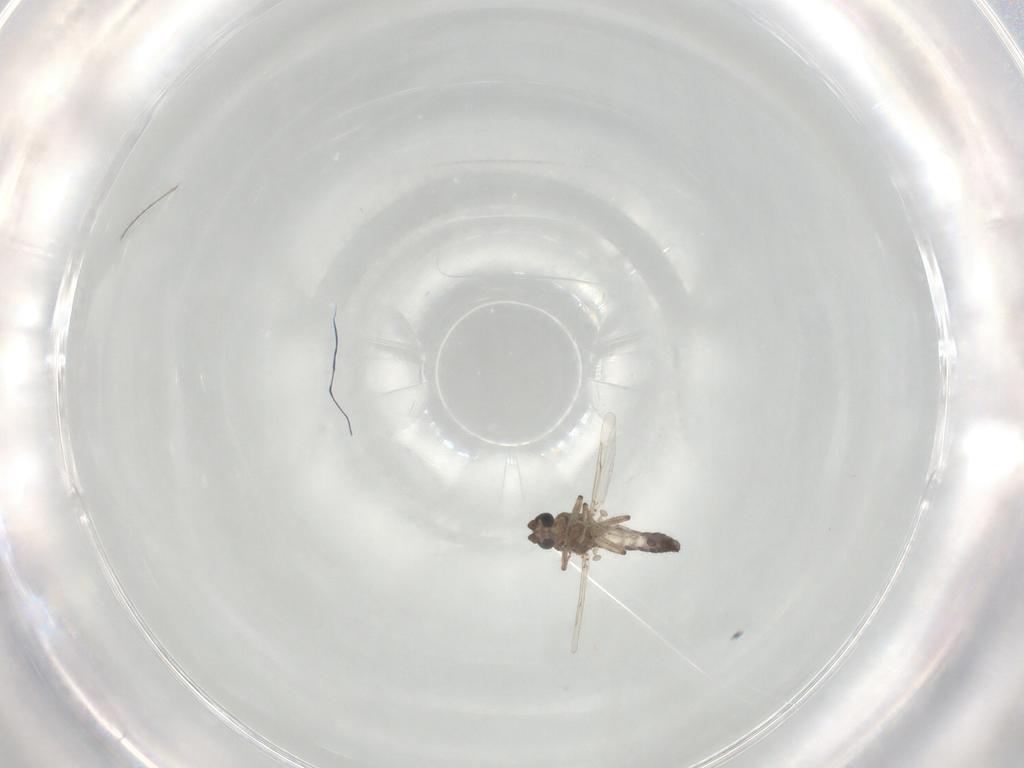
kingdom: Animalia
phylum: Arthropoda
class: Insecta
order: Diptera
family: Ceratopogonidae
